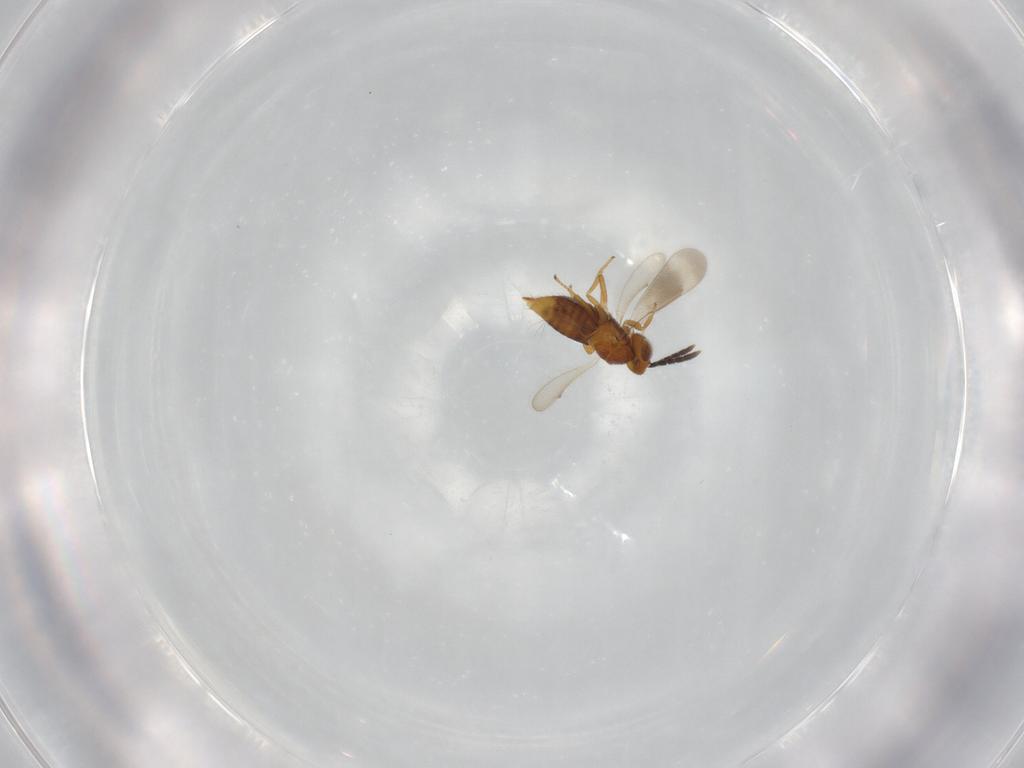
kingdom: Animalia
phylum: Arthropoda
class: Insecta
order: Hymenoptera
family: Aphelinidae
